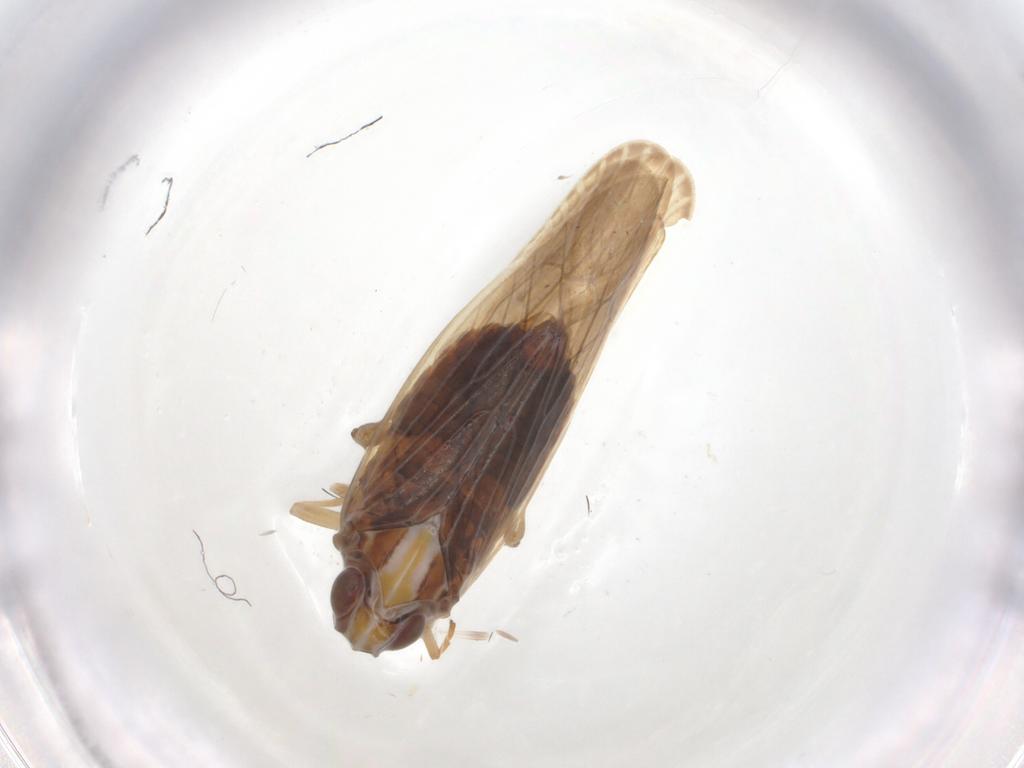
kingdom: Animalia
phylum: Arthropoda
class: Insecta
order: Hemiptera
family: Achilidae
